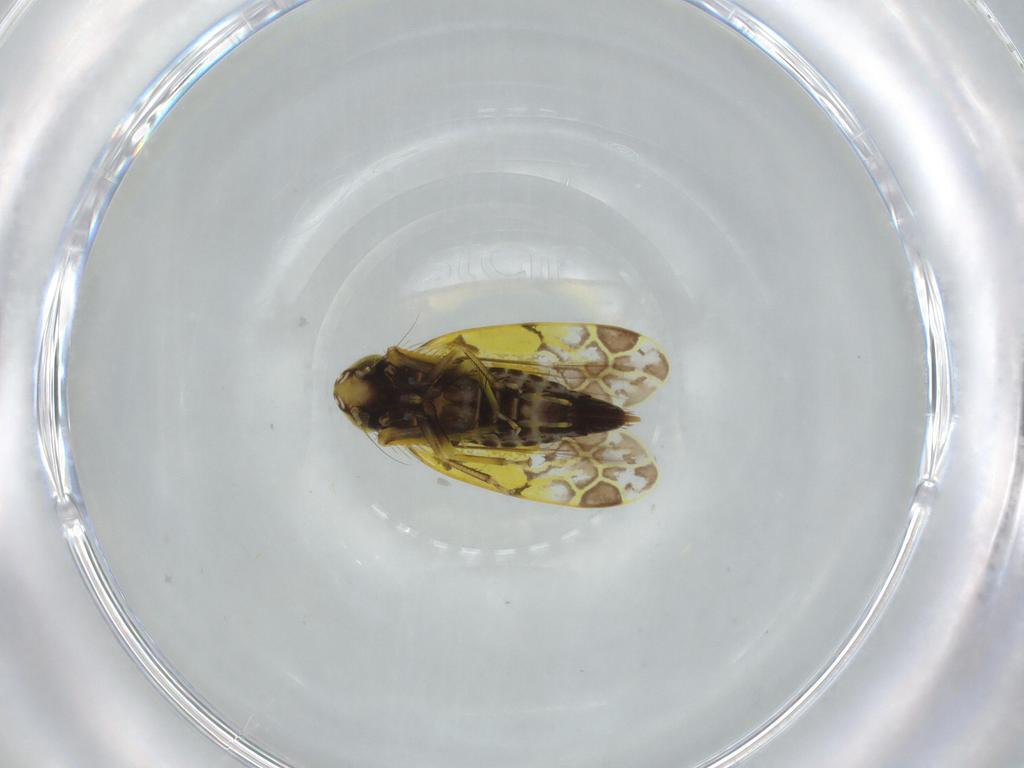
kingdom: Animalia
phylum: Arthropoda
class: Insecta
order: Hemiptera
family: Cicadellidae
